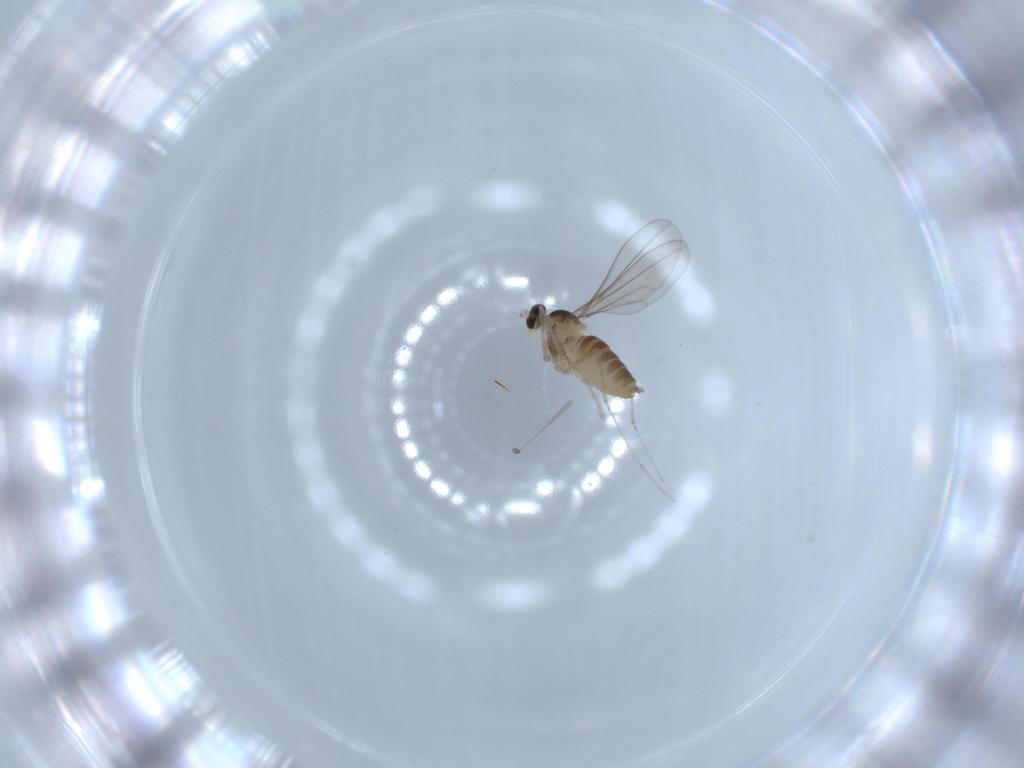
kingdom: Animalia
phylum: Arthropoda
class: Insecta
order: Diptera
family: Cecidomyiidae
